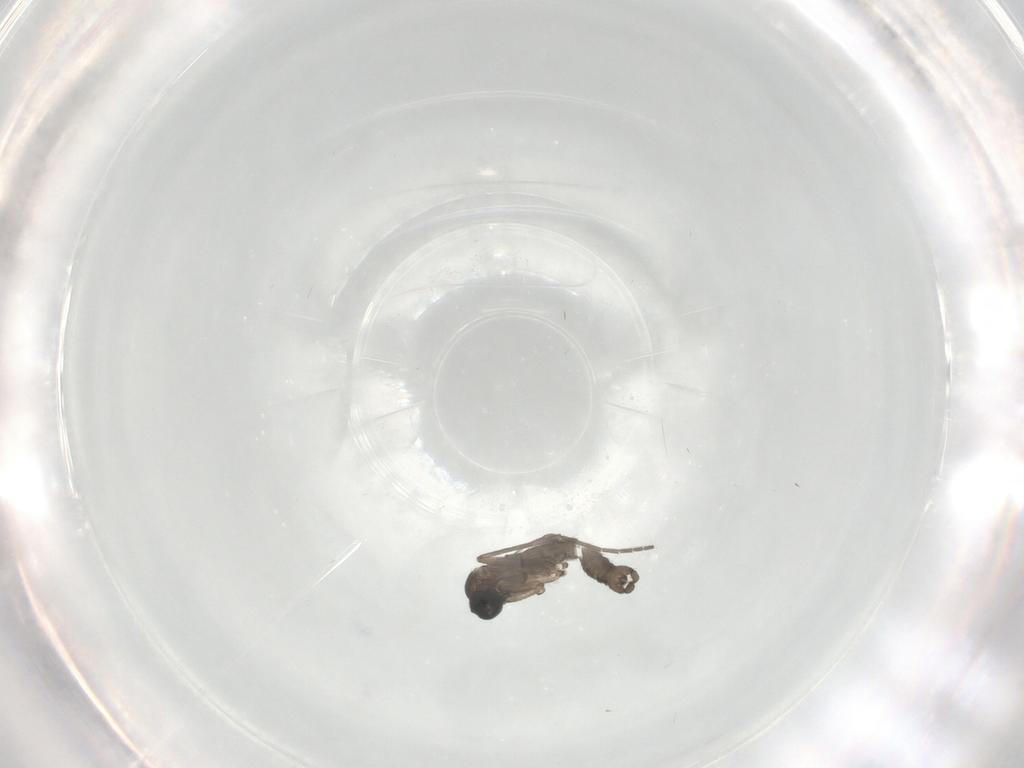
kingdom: Animalia
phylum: Arthropoda
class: Insecta
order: Diptera
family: Sciaridae
